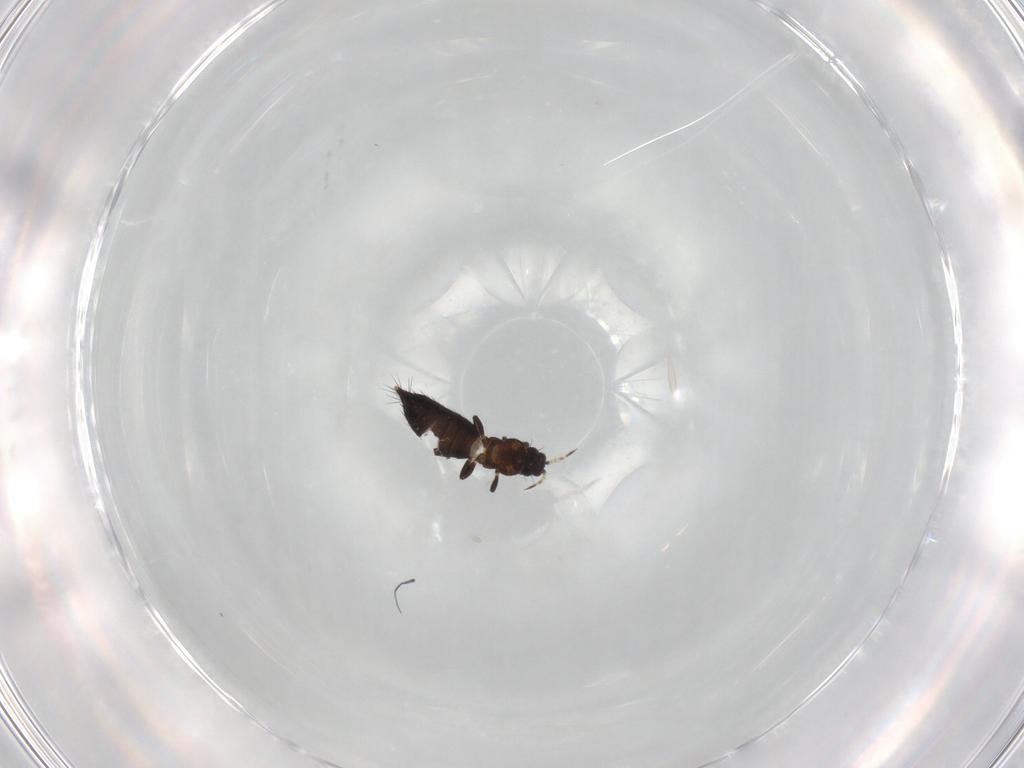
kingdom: Animalia
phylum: Arthropoda
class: Insecta
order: Thysanoptera
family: Thripidae
